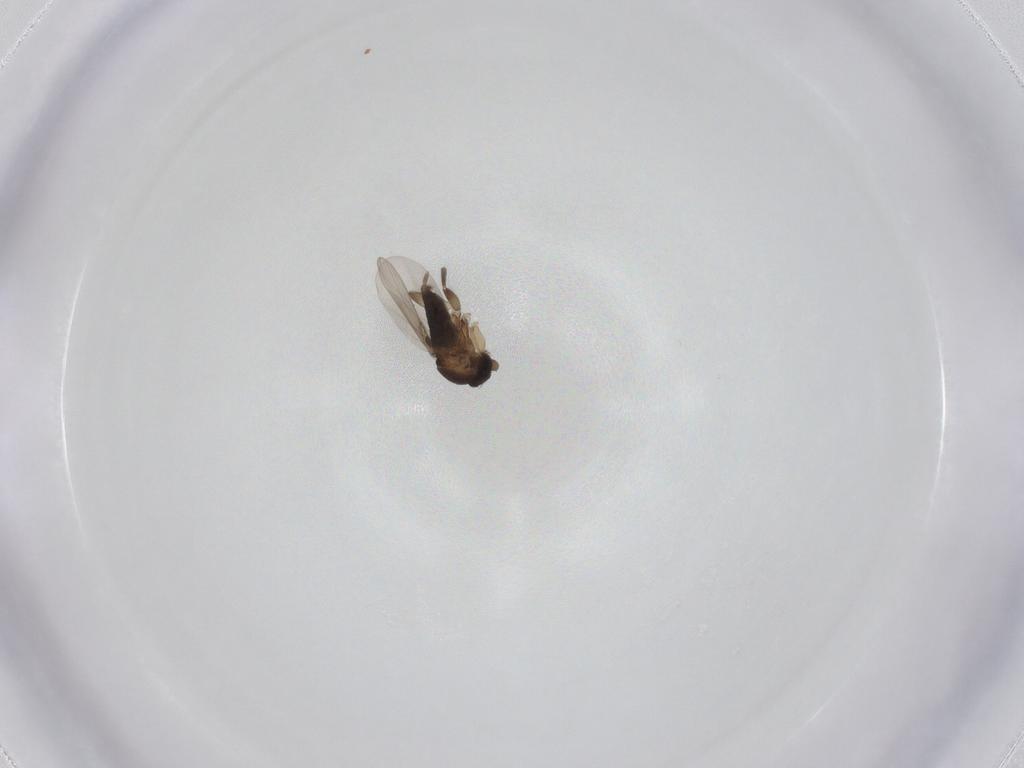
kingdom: Animalia
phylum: Arthropoda
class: Insecta
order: Diptera
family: Phoridae
